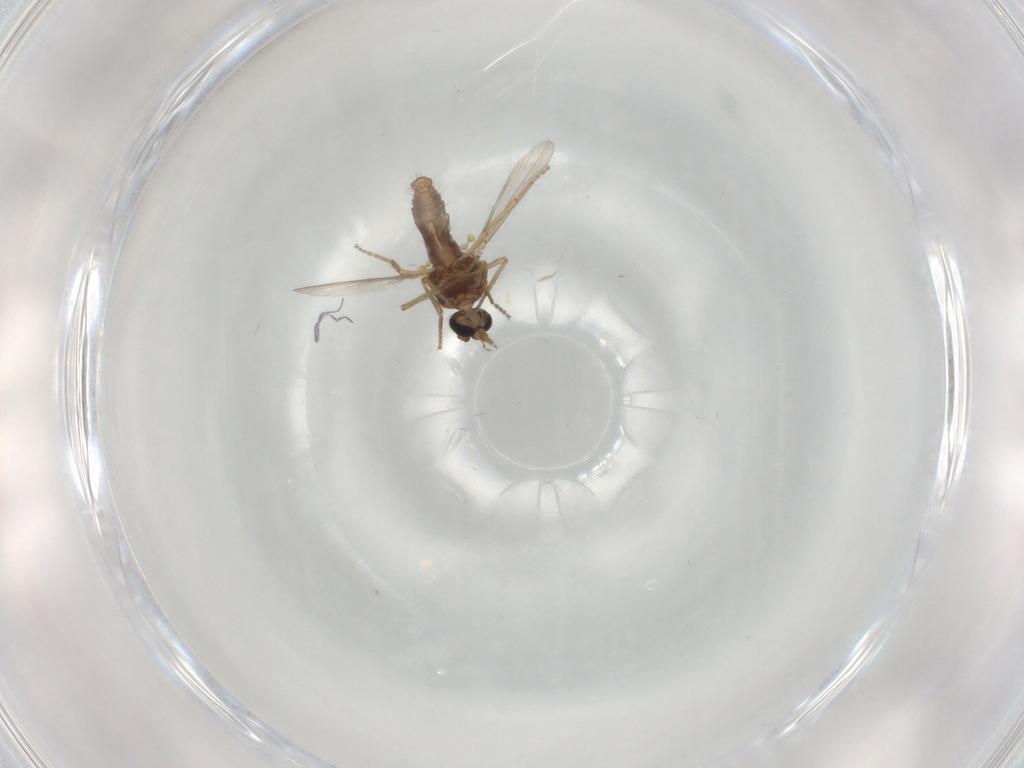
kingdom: Animalia
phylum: Arthropoda
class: Insecta
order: Diptera
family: Ceratopogonidae
